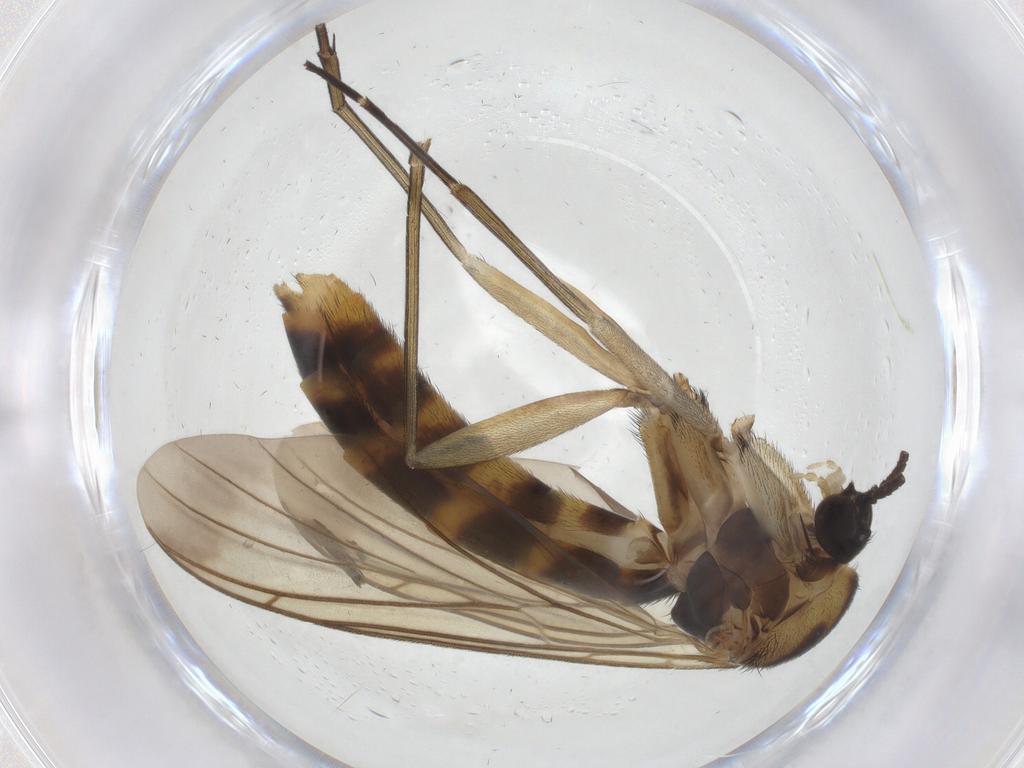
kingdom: Animalia
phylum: Arthropoda
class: Insecta
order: Diptera
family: Keroplatidae
